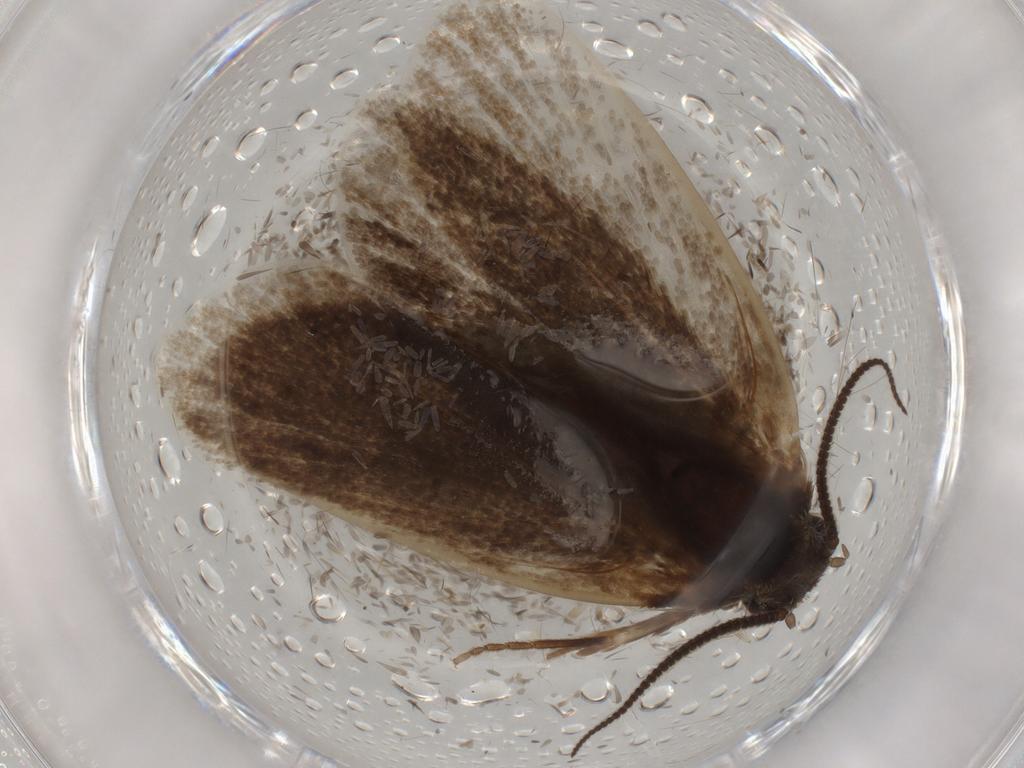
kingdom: Animalia
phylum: Arthropoda
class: Insecta
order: Lepidoptera
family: Tineidae
